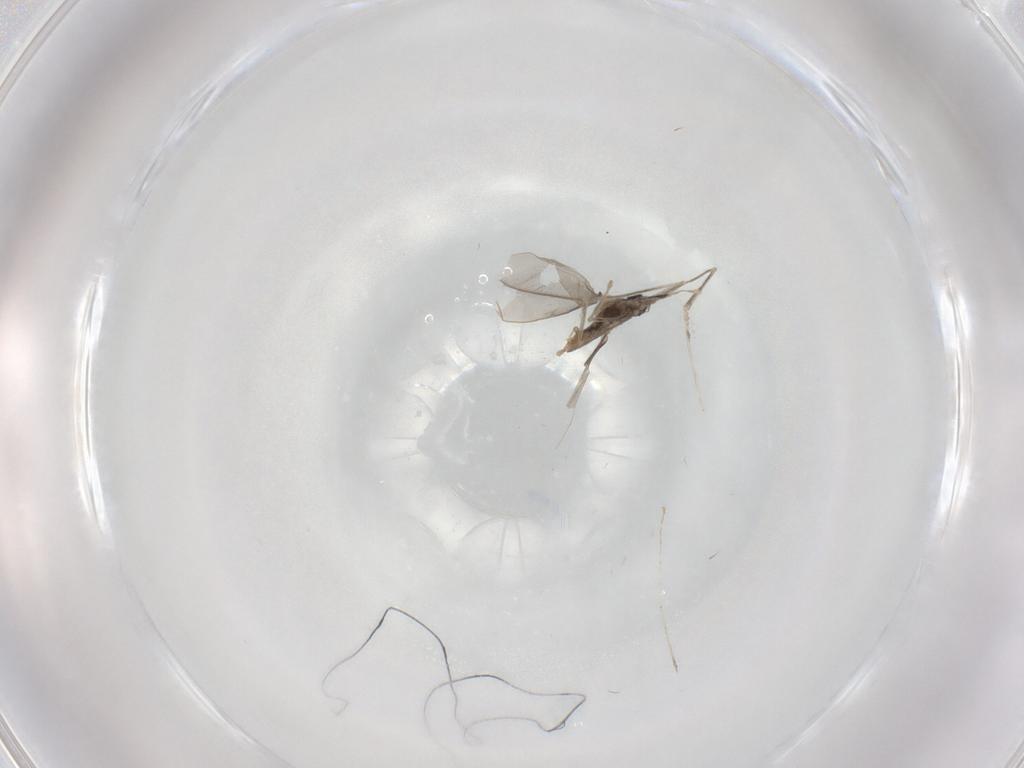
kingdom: Animalia
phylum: Arthropoda
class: Insecta
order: Diptera
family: Cecidomyiidae
